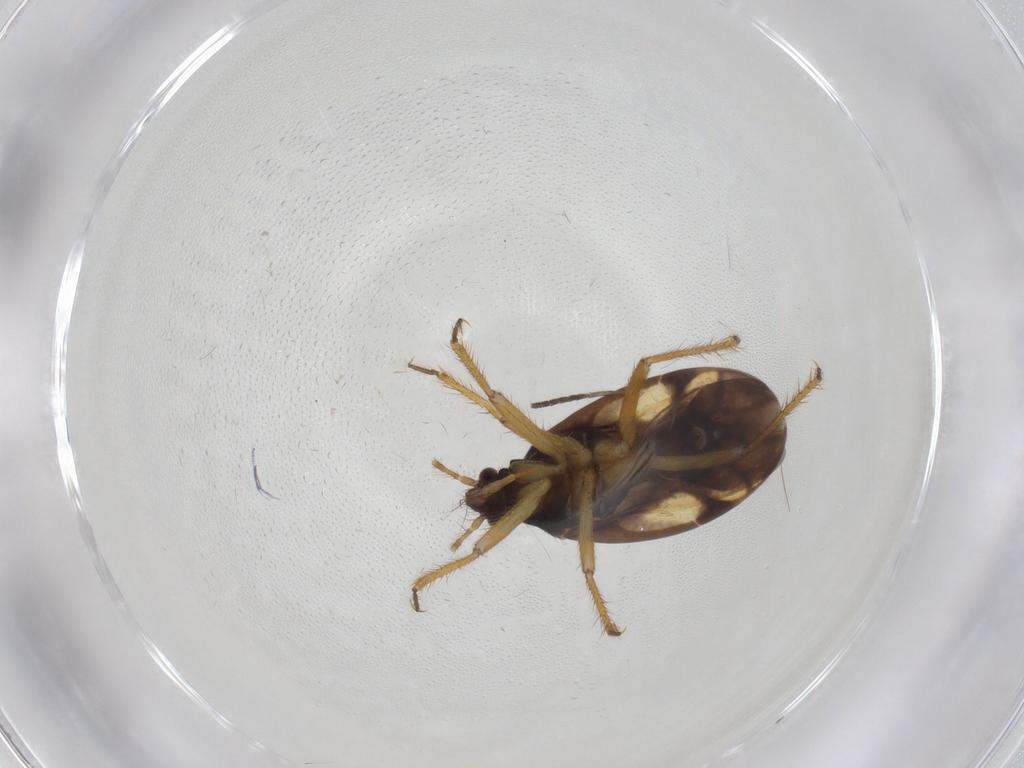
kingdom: Animalia
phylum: Arthropoda
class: Insecta
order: Hemiptera
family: Ceratocombidae
